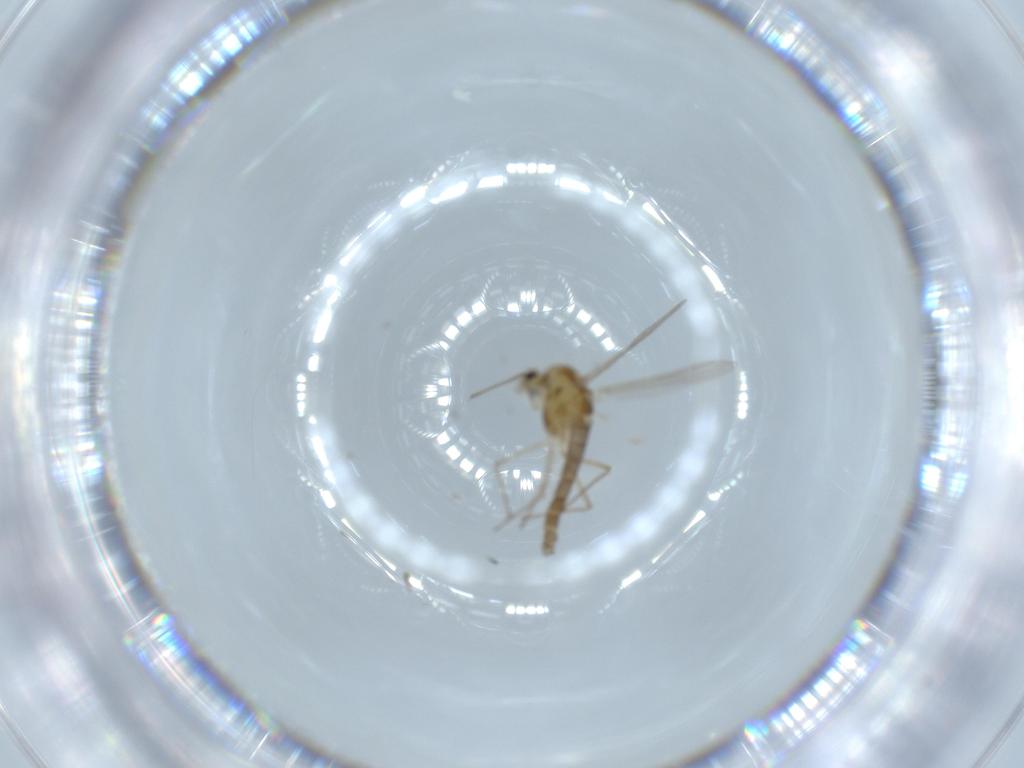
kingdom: Animalia
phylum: Arthropoda
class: Insecta
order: Diptera
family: Chironomidae
